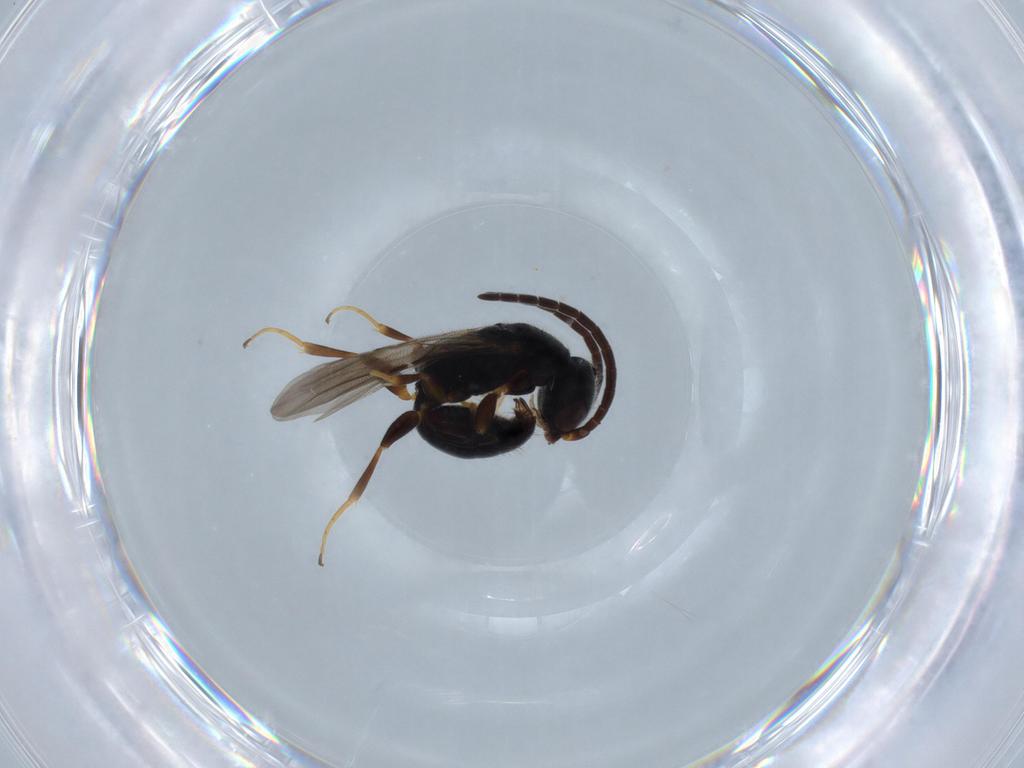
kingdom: Animalia
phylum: Arthropoda
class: Insecta
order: Hymenoptera
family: Bethylidae
